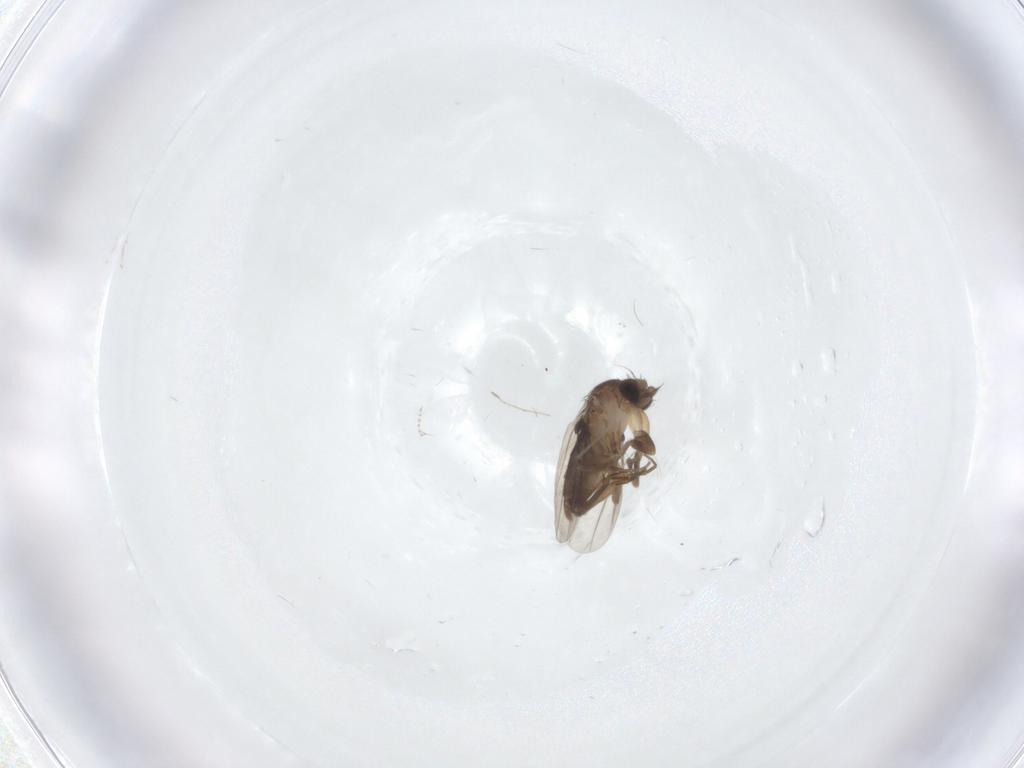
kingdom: Animalia
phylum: Arthropoda
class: Insecta
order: Diptera
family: Cecidomyiidae
